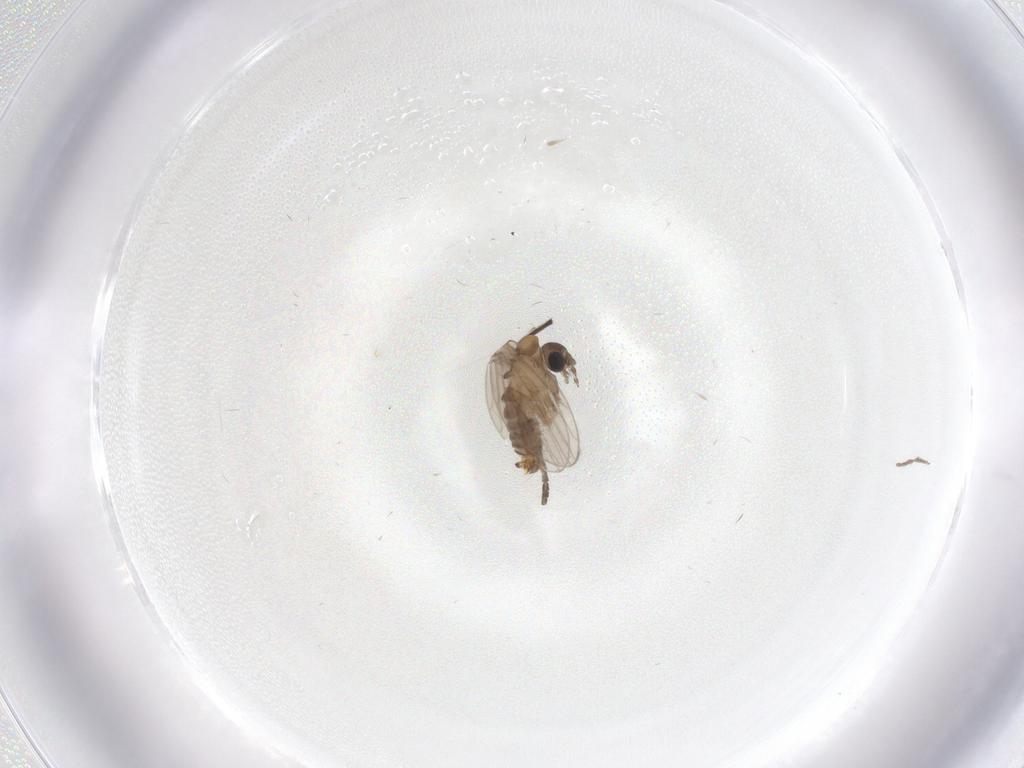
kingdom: Animalia
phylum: Arthropoda
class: Insecta
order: Diptera
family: Psychodidae
